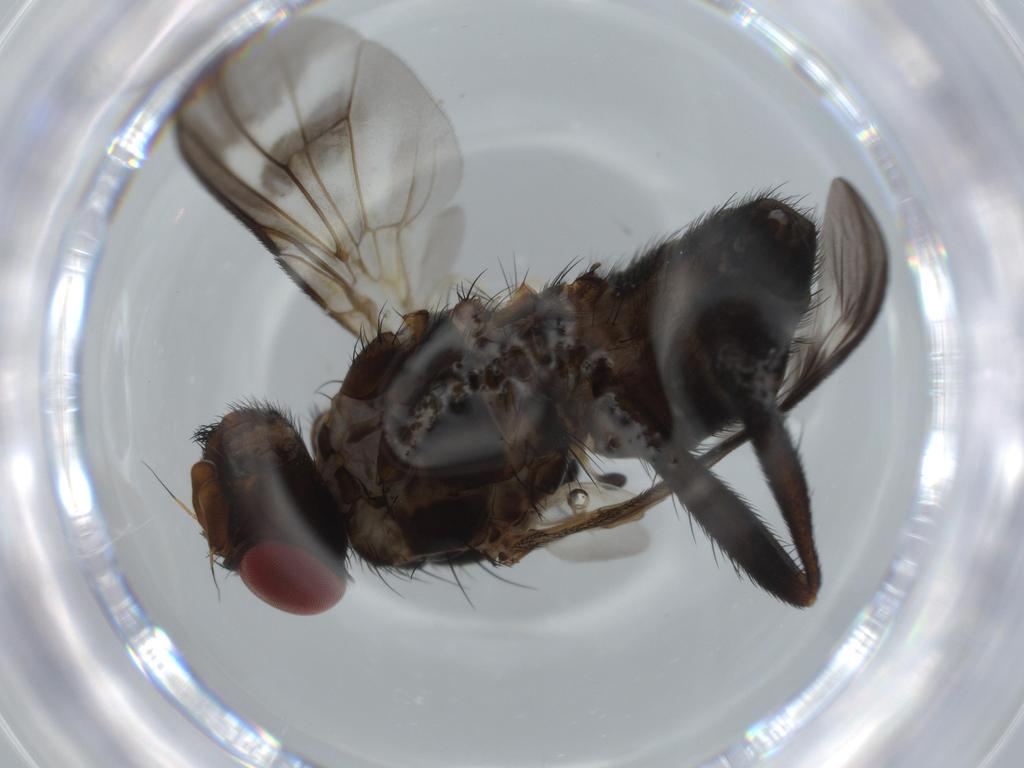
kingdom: Animalia
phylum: Arthropoda
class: Insecta
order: Diptera
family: Calliphoridae
